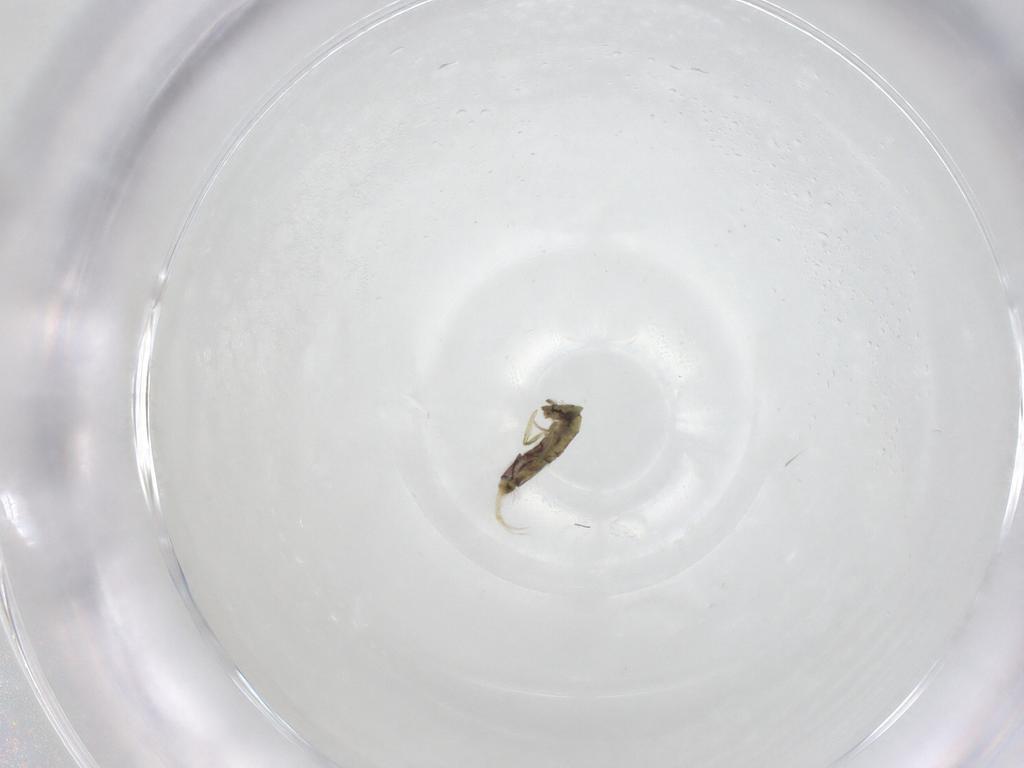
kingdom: Animalia
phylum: Arthropoda
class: Collembola
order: Entomobryomorpha
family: Entomobryidae
